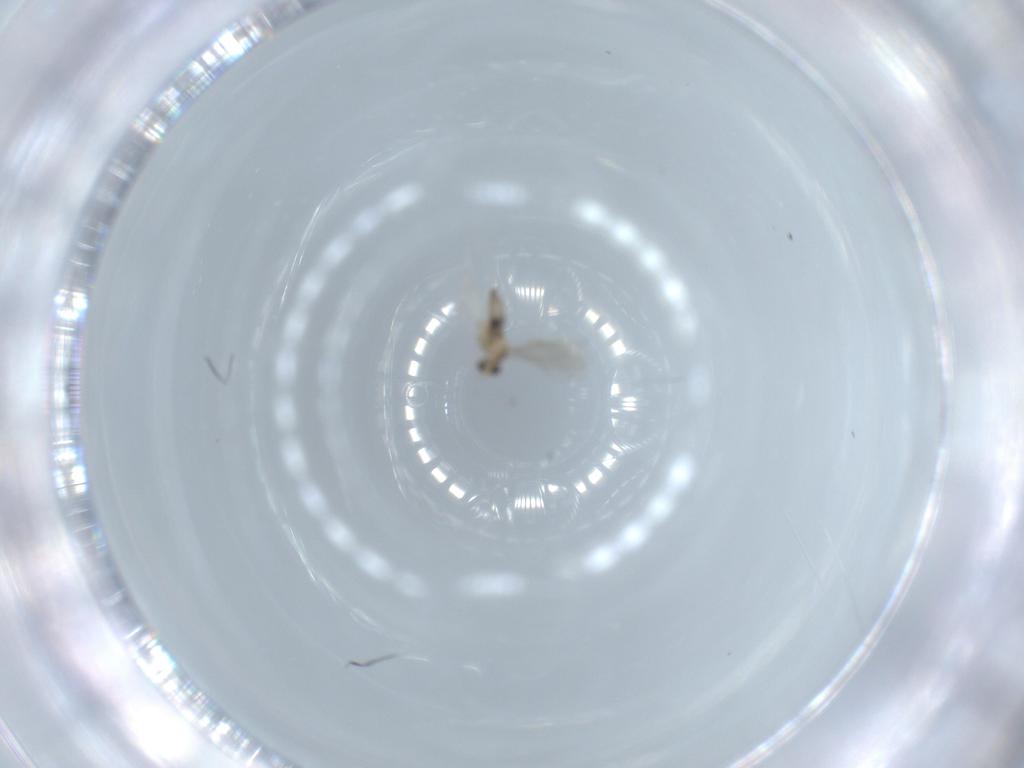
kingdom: Animalia
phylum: Arthropoda
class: Insecta
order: Diptera
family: Cecidomyiidae
